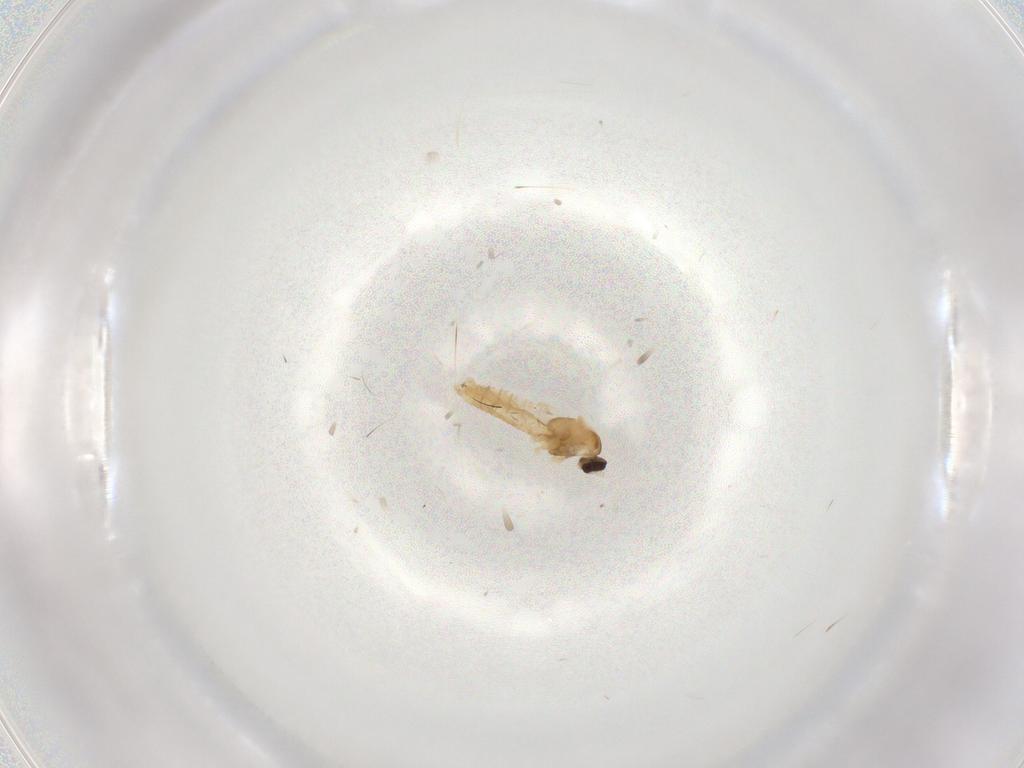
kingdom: Animalia
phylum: Arthropoda
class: Insecta
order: Diptera
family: Cecidomyiidae
